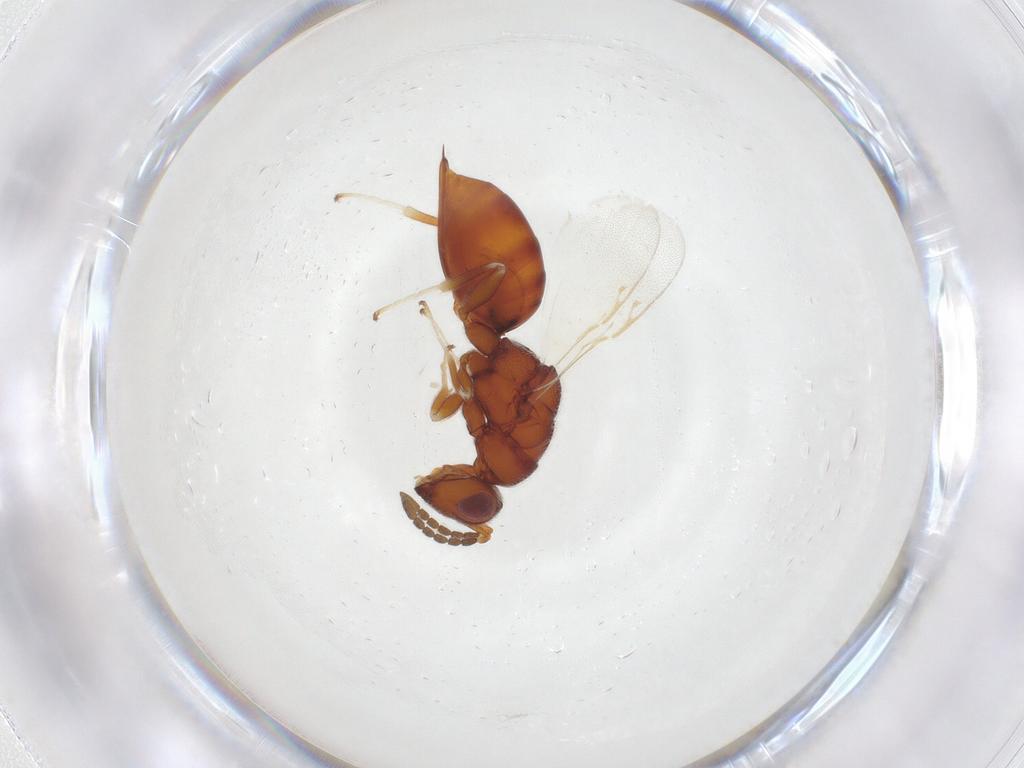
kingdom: Animalia
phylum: Arthropoda
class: Insecta
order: Hymenoptera
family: Eurytomidae
